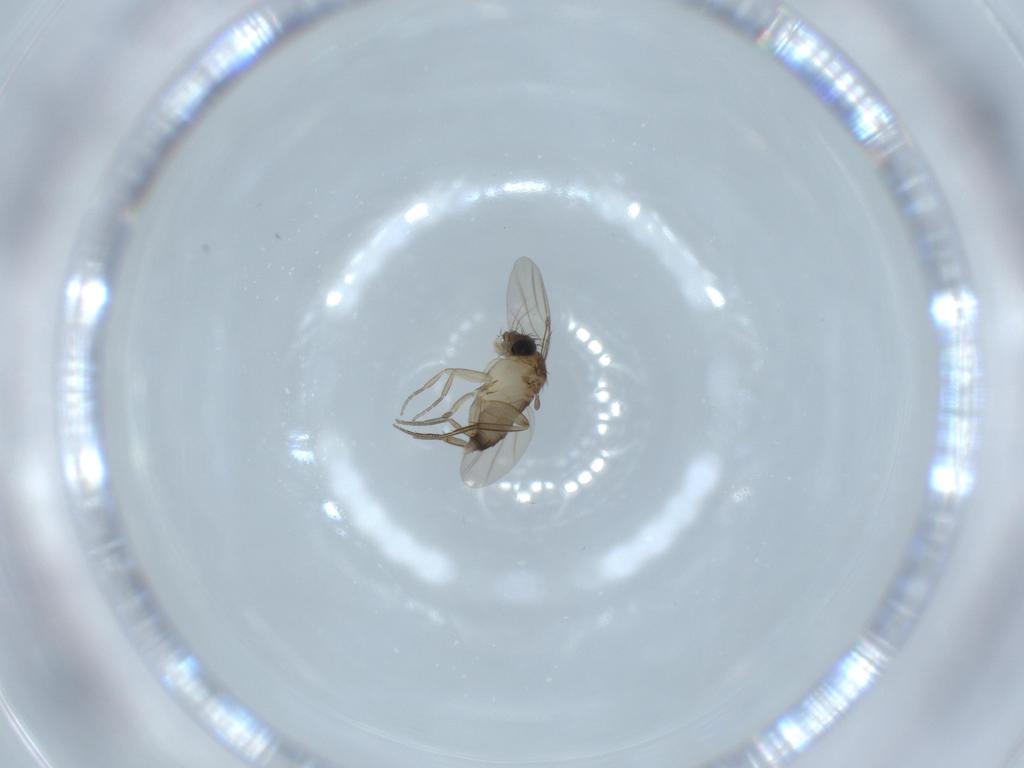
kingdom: Animalia
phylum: Arthropoda
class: Insecta
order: Diptera
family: Phoridae
